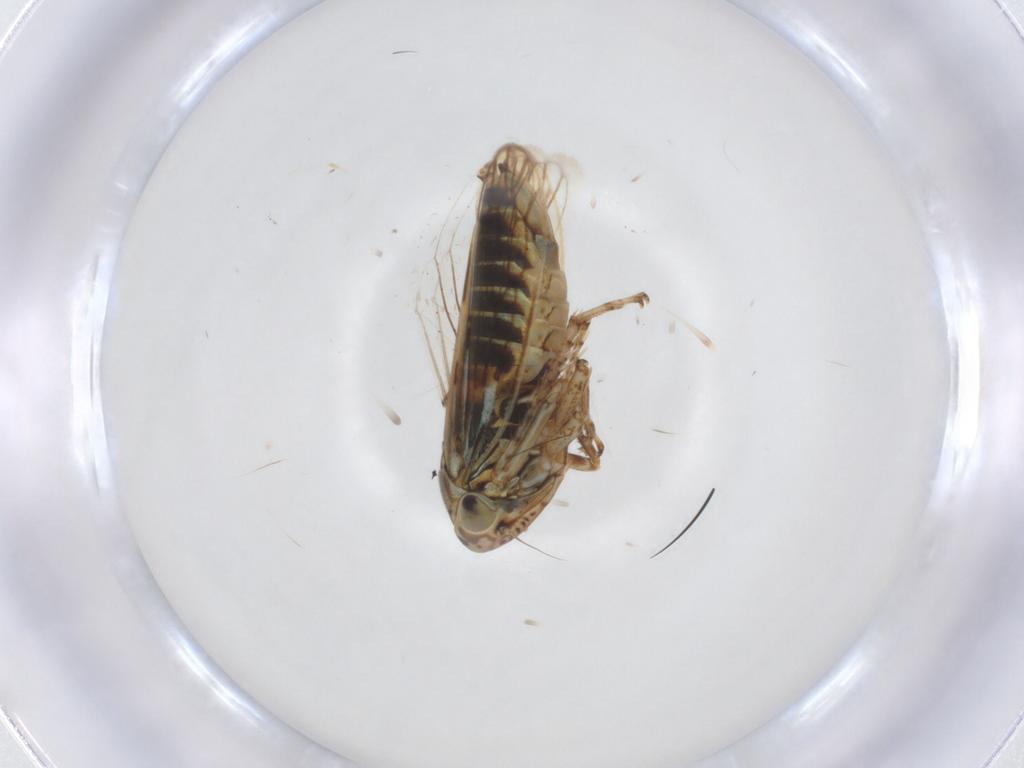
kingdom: Animalia
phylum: Arthropoda
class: Insecta
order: Hemiptera
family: Cicadellidae
